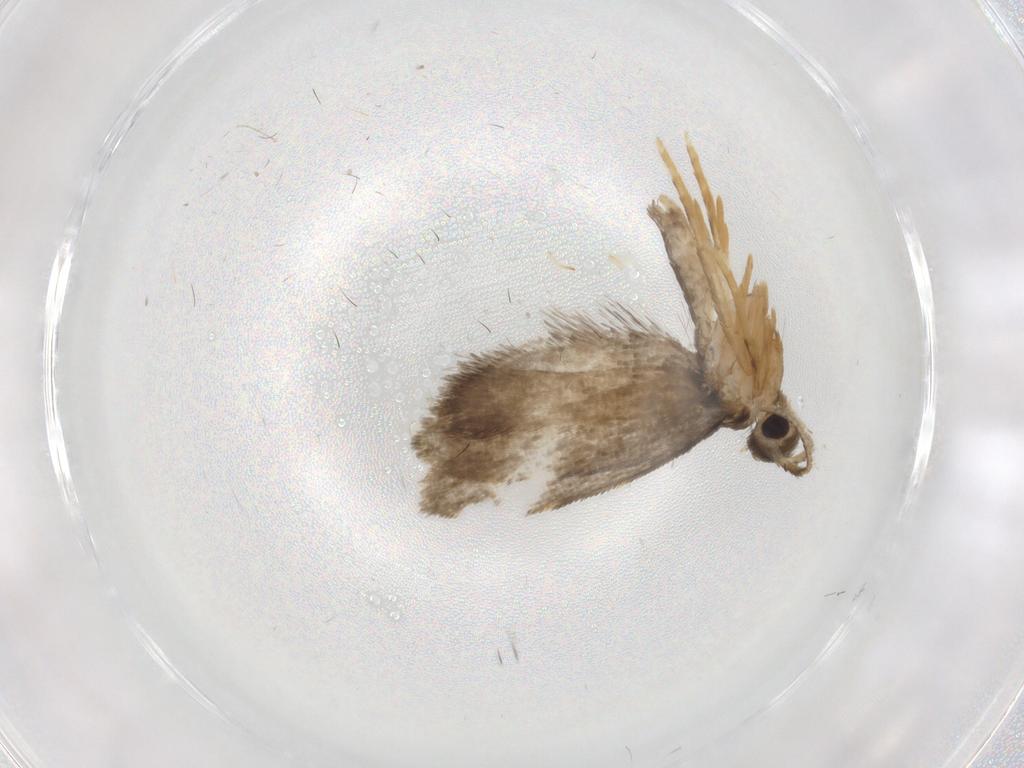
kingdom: Animalia
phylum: Arthropoda
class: Insecta
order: Lepidoptera
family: Psychidae
